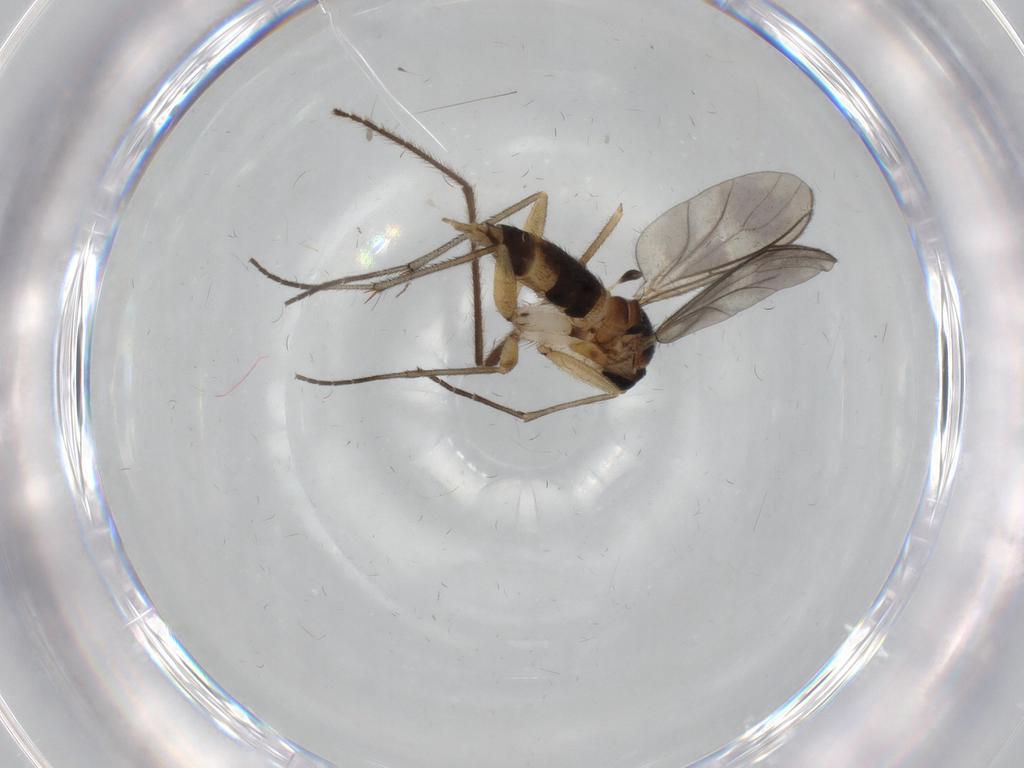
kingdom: Animalia
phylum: Arthropoda
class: Insecta
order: Diptera
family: Sciaridae
